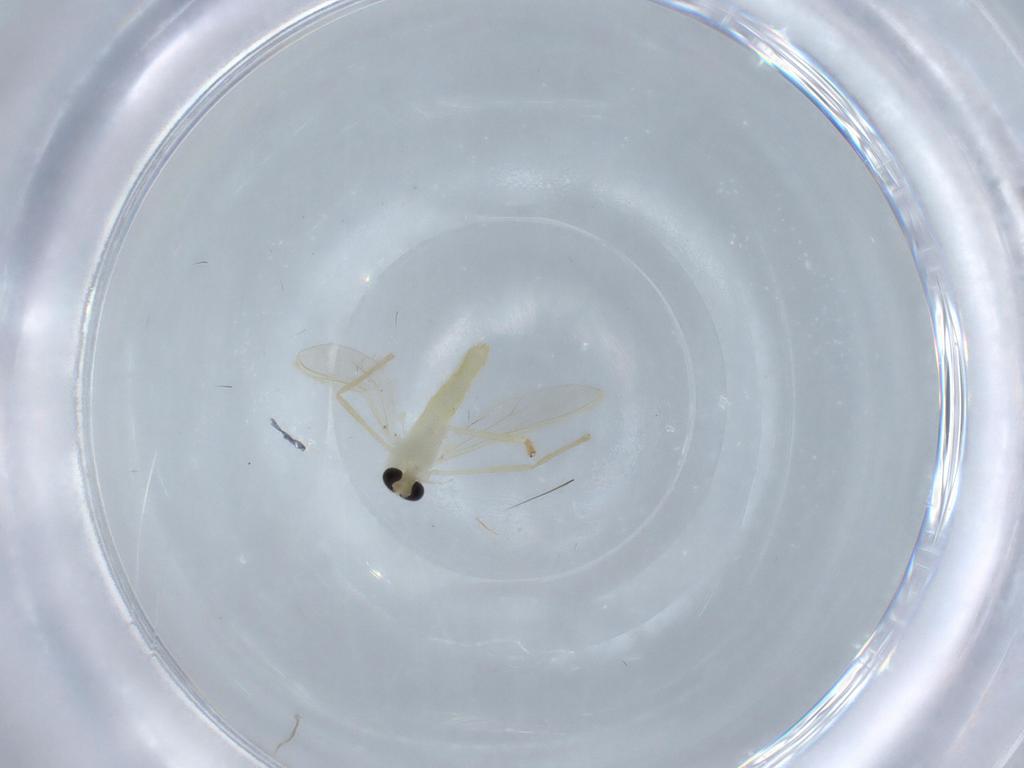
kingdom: Animalia
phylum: Arthropoda
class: Insecta
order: Diptera
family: Chironomidae
